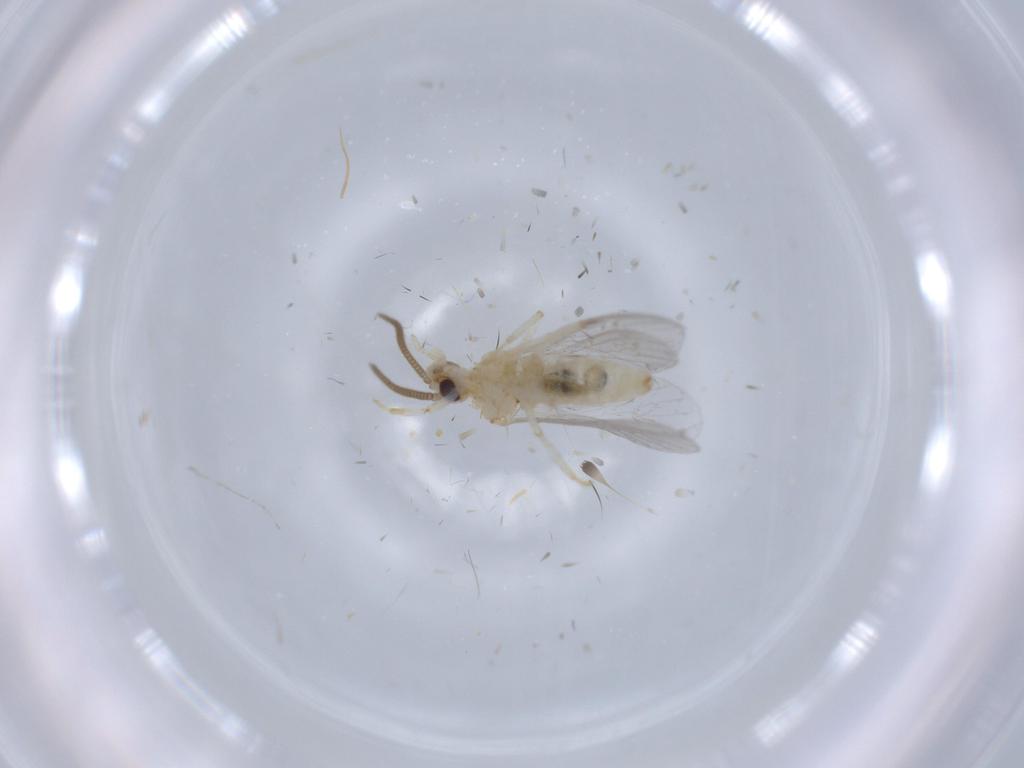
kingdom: Animalia
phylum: Arthropoda
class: Insecta
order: Neuroptera
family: Coniopterygidae
